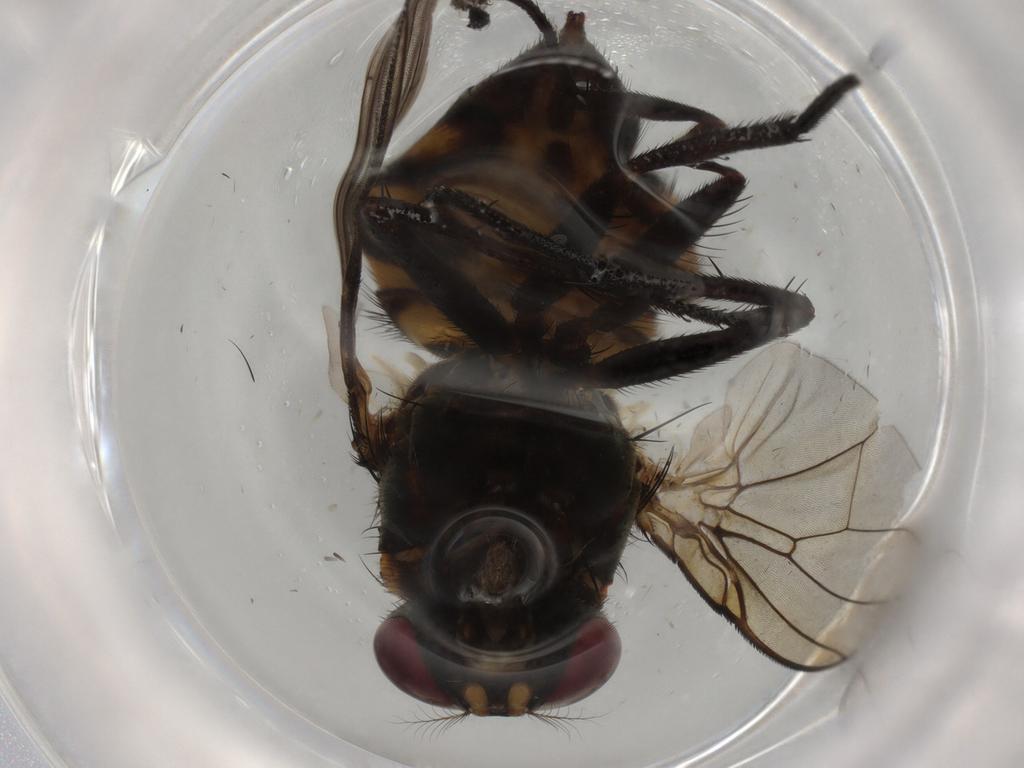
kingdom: Animalia
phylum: Arthropoda
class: Insecta
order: Diptera
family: Muscidae
